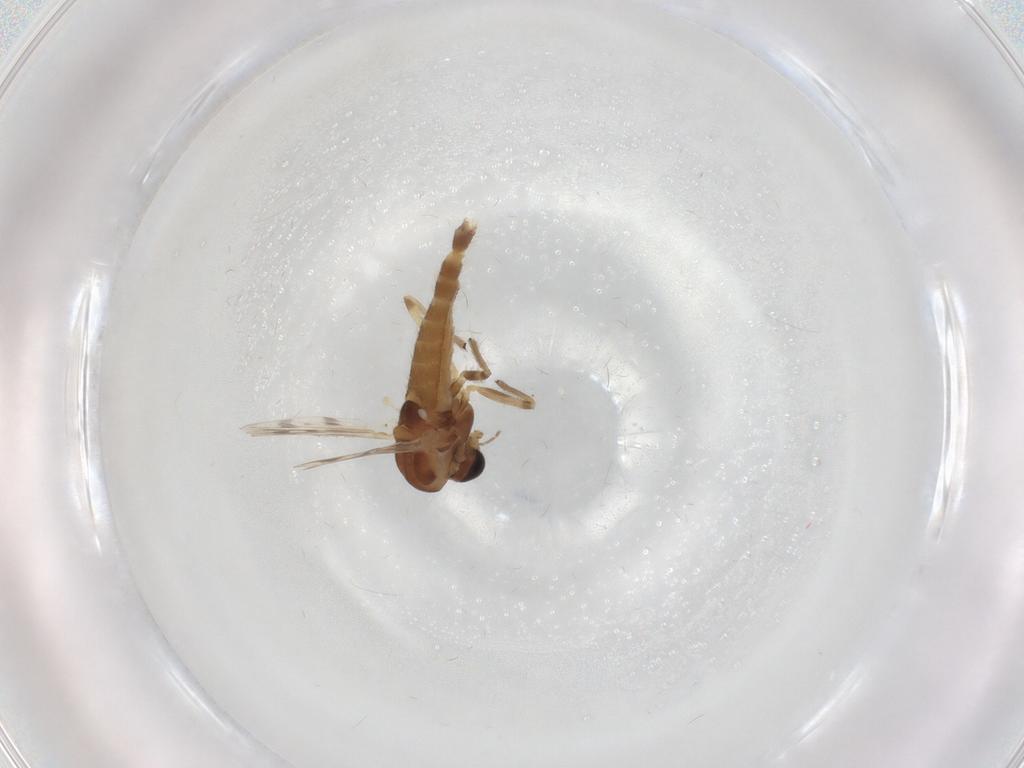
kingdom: Animalia
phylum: Arthropoda
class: Insecta
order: Diptera
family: Chironomidae
